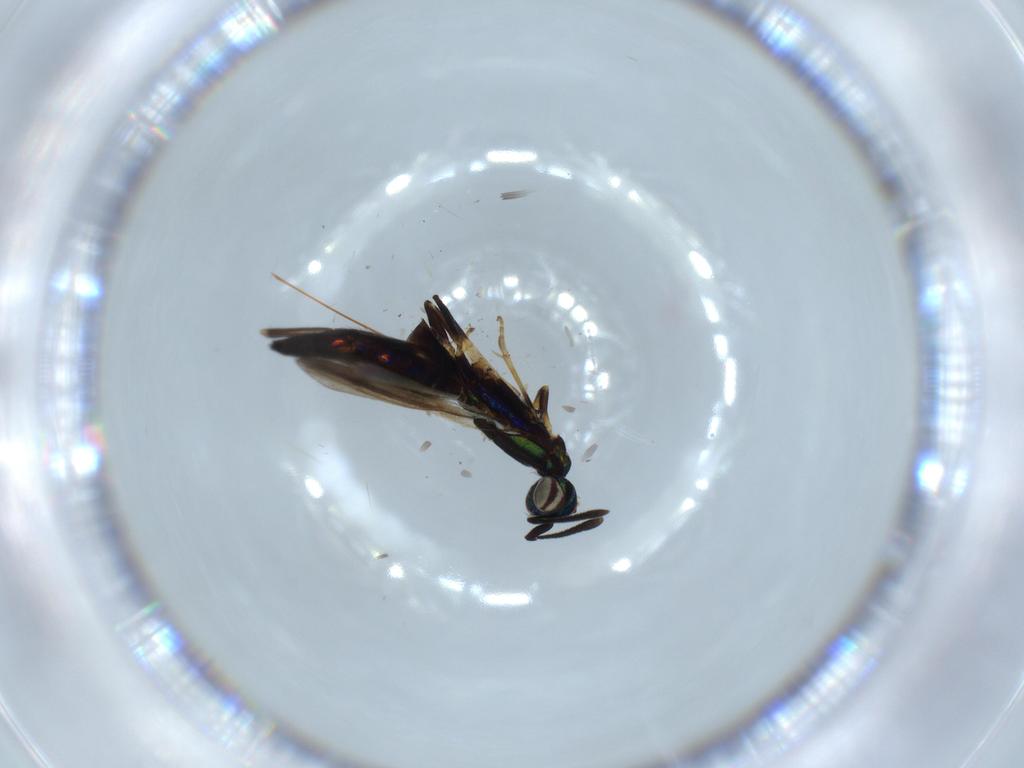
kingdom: Animalia
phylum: Arthropoda
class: Insecta
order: Hymenoptera
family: Eupelmidae
